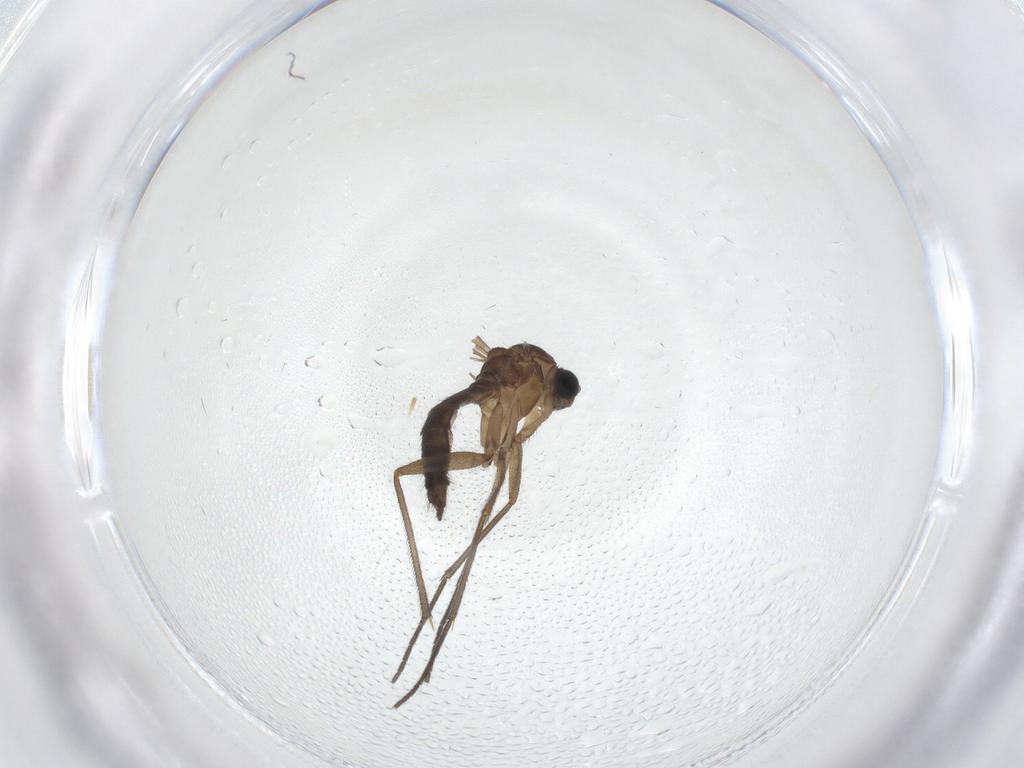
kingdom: Animalia
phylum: Arthropoda
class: Insecta
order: Diptera
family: Sciaridae
